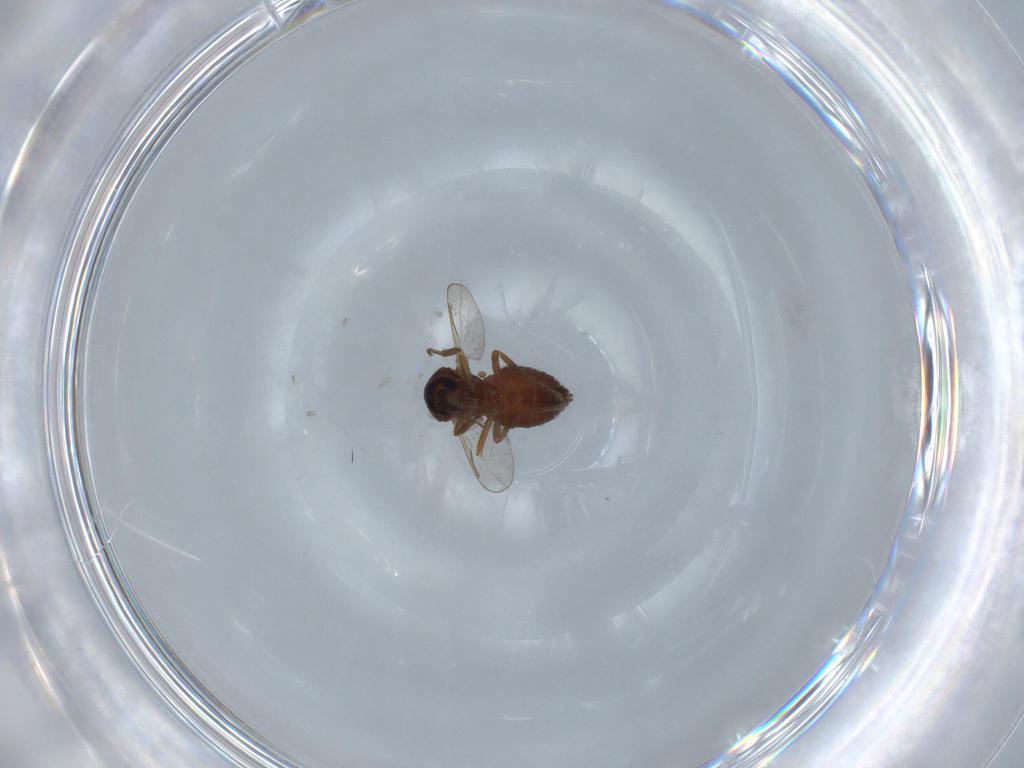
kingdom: Animalia
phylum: Arthropoda
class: Insecta
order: Diptera
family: Ceratopogonidae
